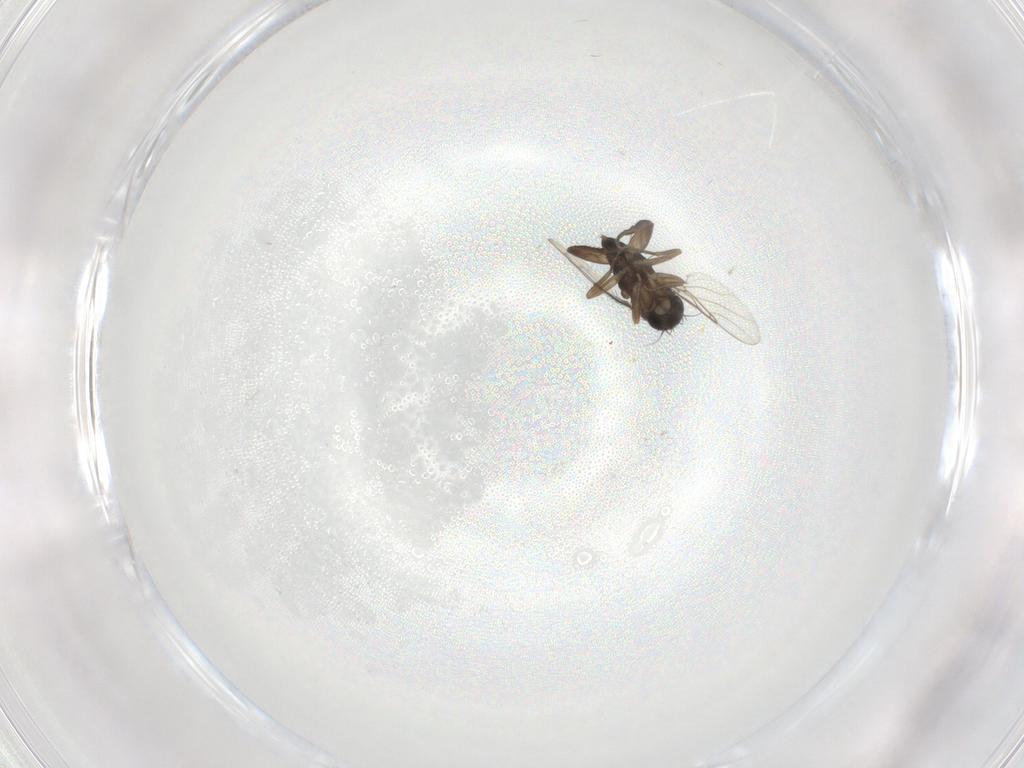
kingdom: Animalia
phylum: Arthropoda
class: Insecta
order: Diptera
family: Phoridae
